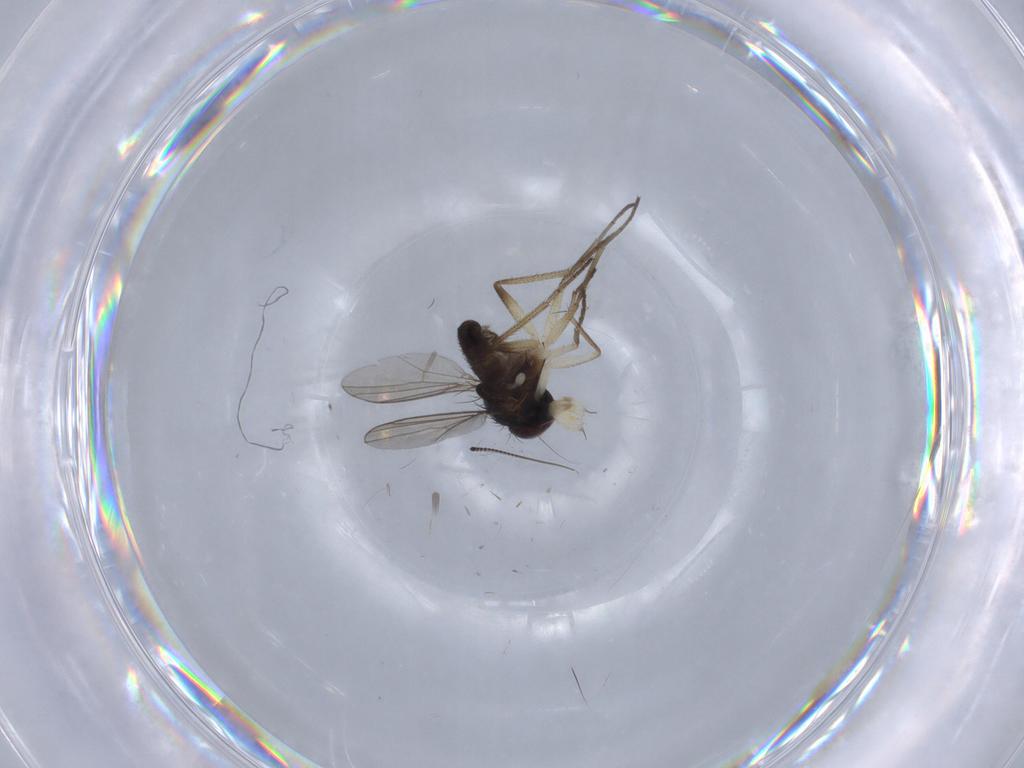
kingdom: Animalia
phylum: Arthropoda
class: Insecta
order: Diptera
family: Dolichopodidae
